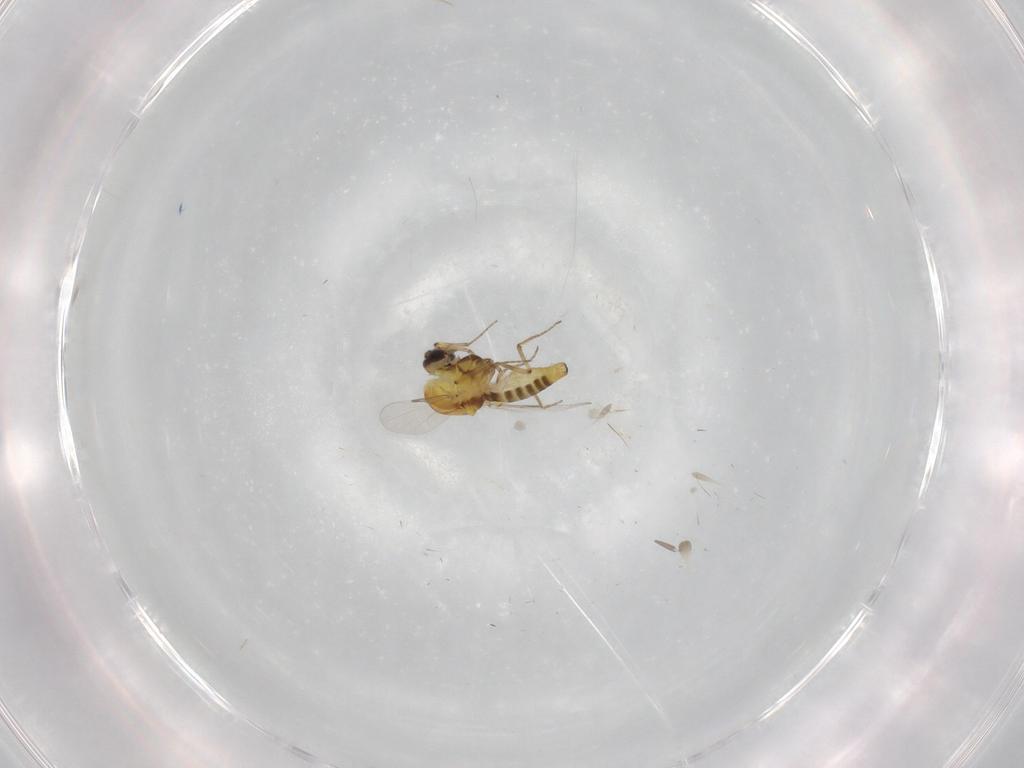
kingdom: Animalia
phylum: Arthropoda
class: Insecta
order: Diptera
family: Ceratopogonidae
